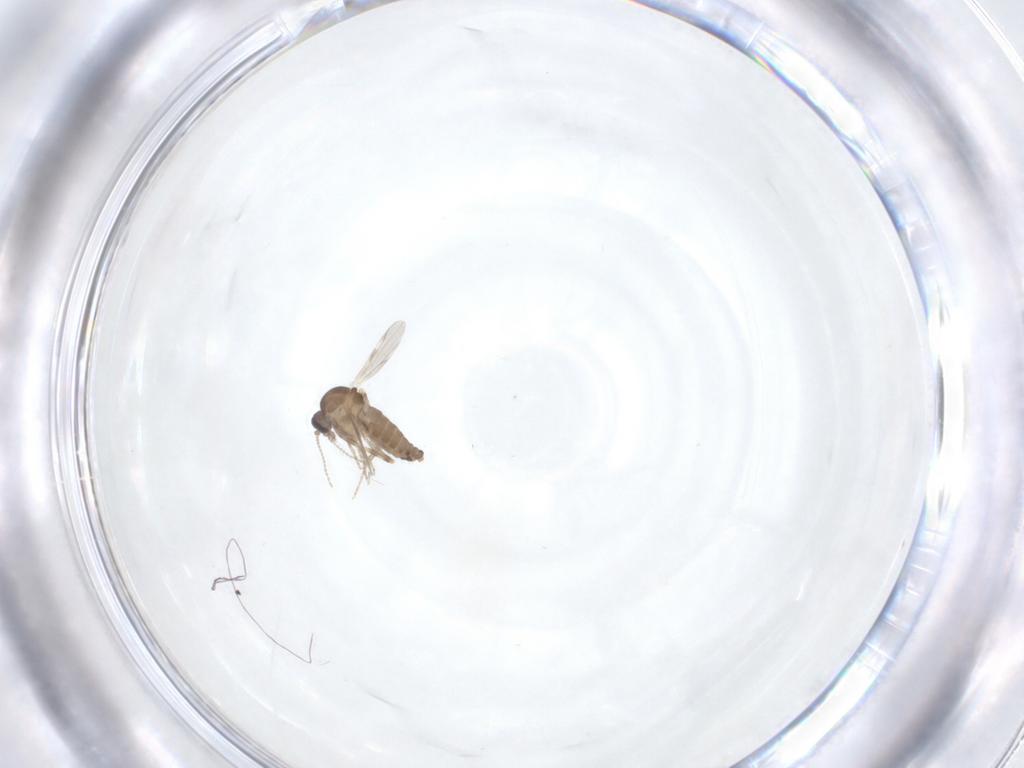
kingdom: Animalia
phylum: Arthropoda
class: Insecta
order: Diptera
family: Ceratopogonidae
